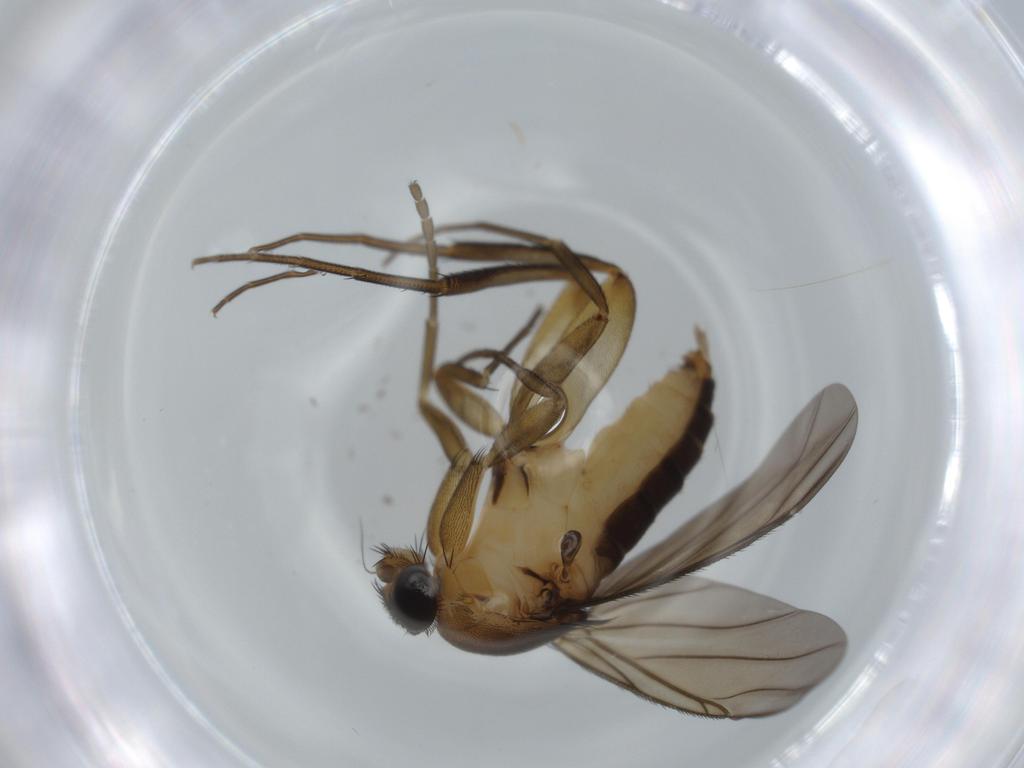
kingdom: Animalia
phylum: Arthropoda
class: Insecta
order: Diptera
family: Phoridae
